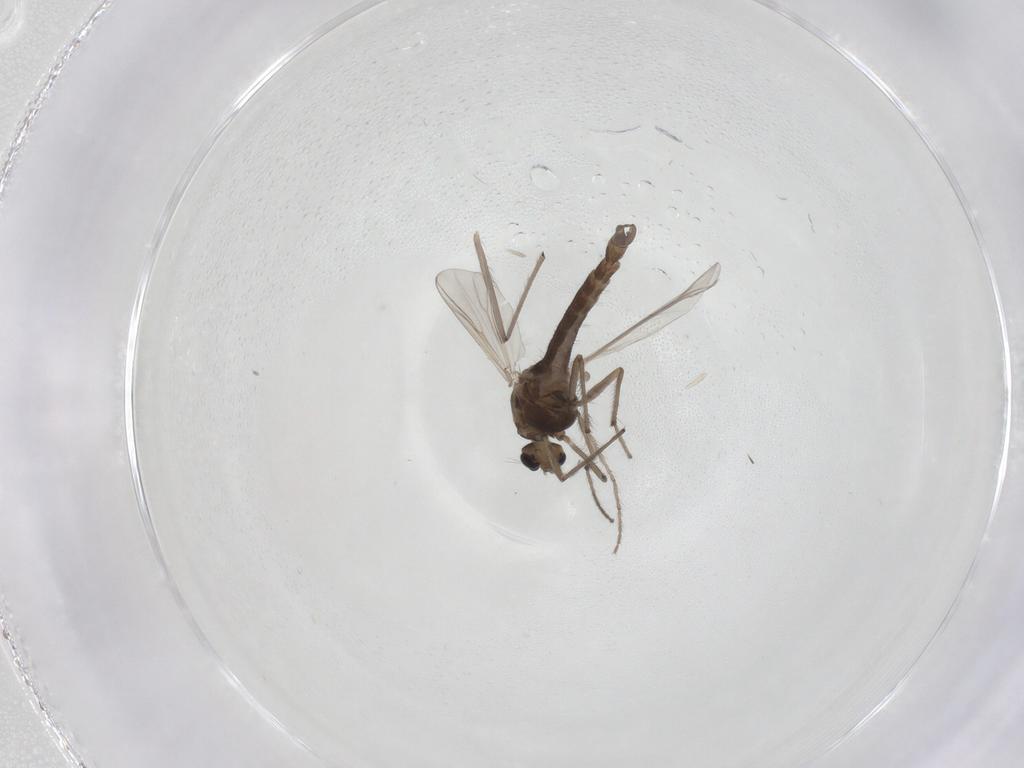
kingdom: Animalia
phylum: Arthropoda
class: Insecta
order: Diptera
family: Chironomidae
